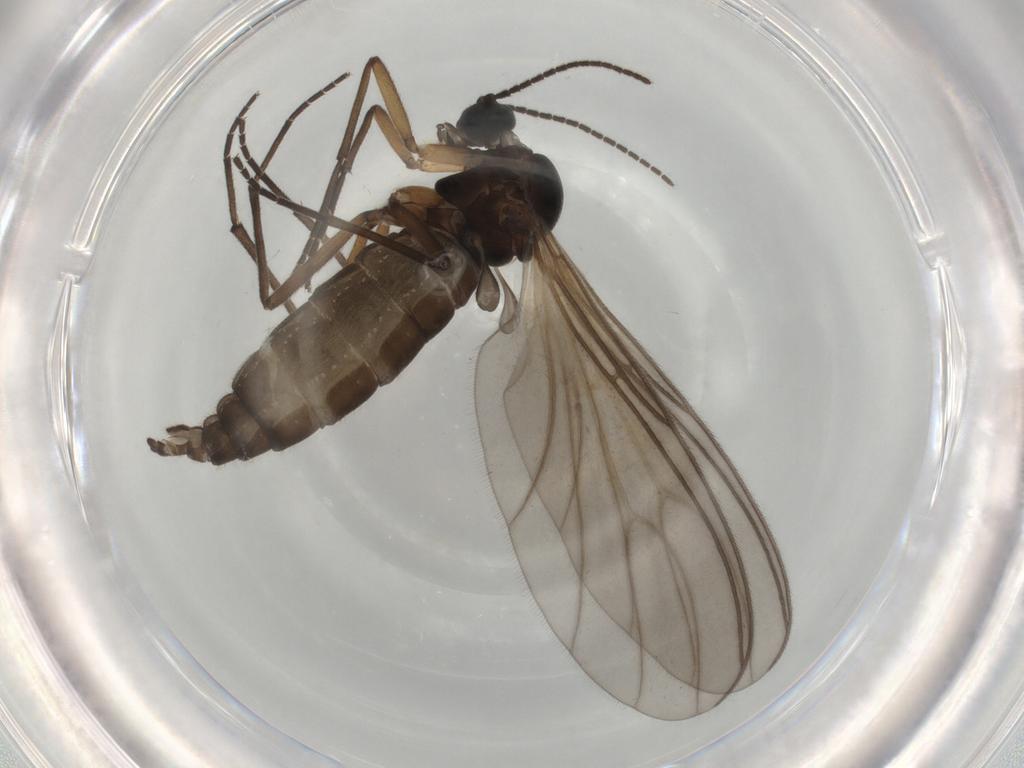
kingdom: Animalia
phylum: Arthropoda
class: Insecta
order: Diptera
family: Sciaridae
